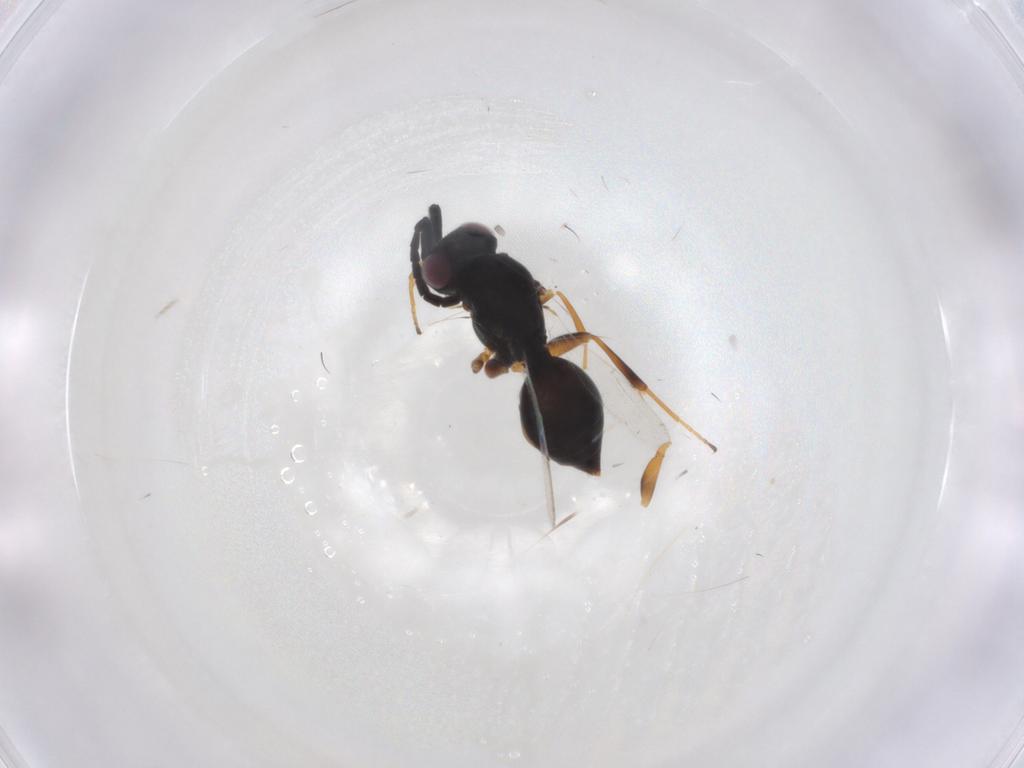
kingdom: Animalia
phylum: Arthropoda
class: Insecta
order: Hymenoptera
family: Megaspilidae
